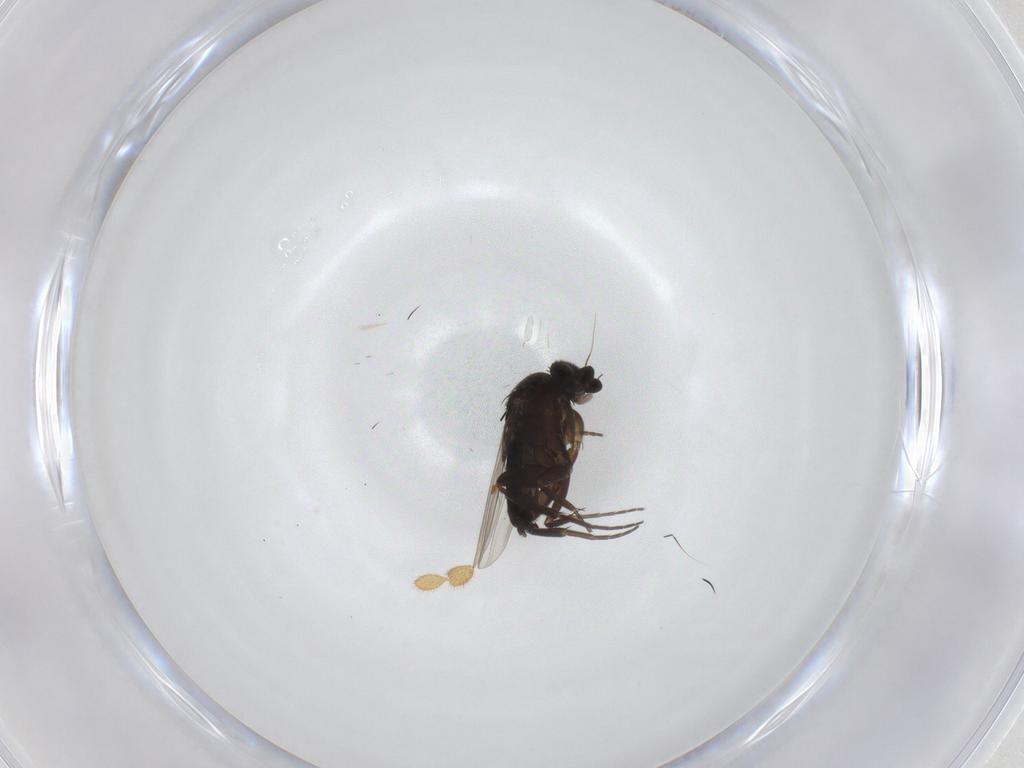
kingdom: Animalia
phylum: Arthropoda
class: Insecta
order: Diptera
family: Mycetophilidae
